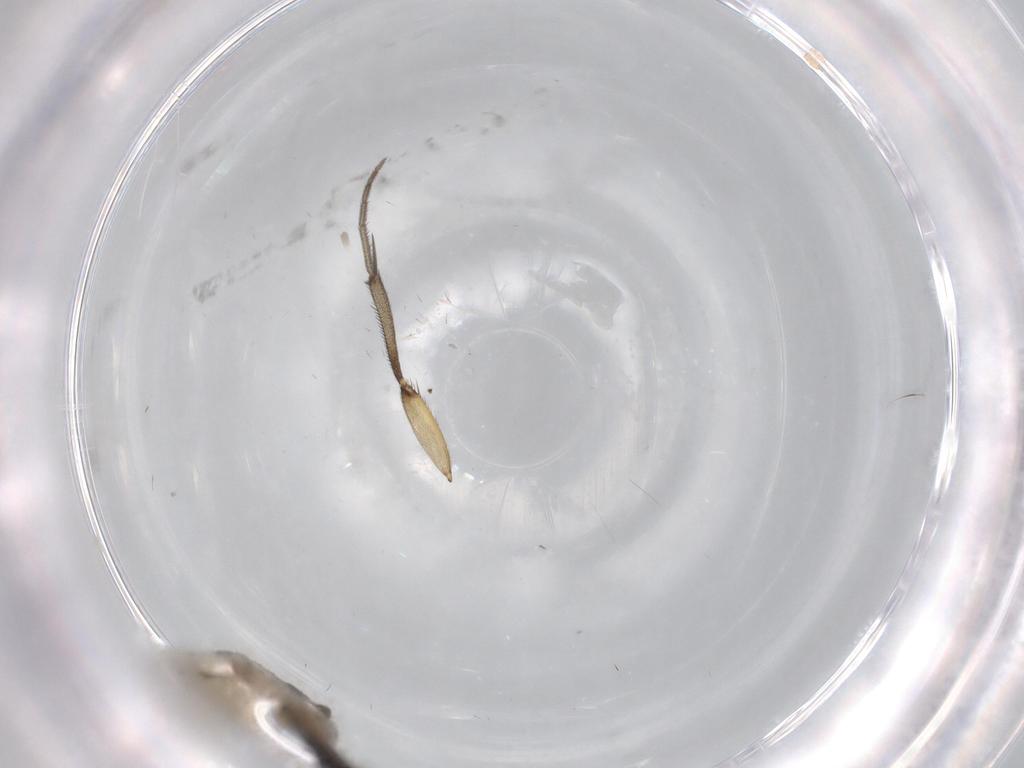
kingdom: Animalia
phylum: Arthropoda
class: Insecta
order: Diptera
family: Mycetophilidae
